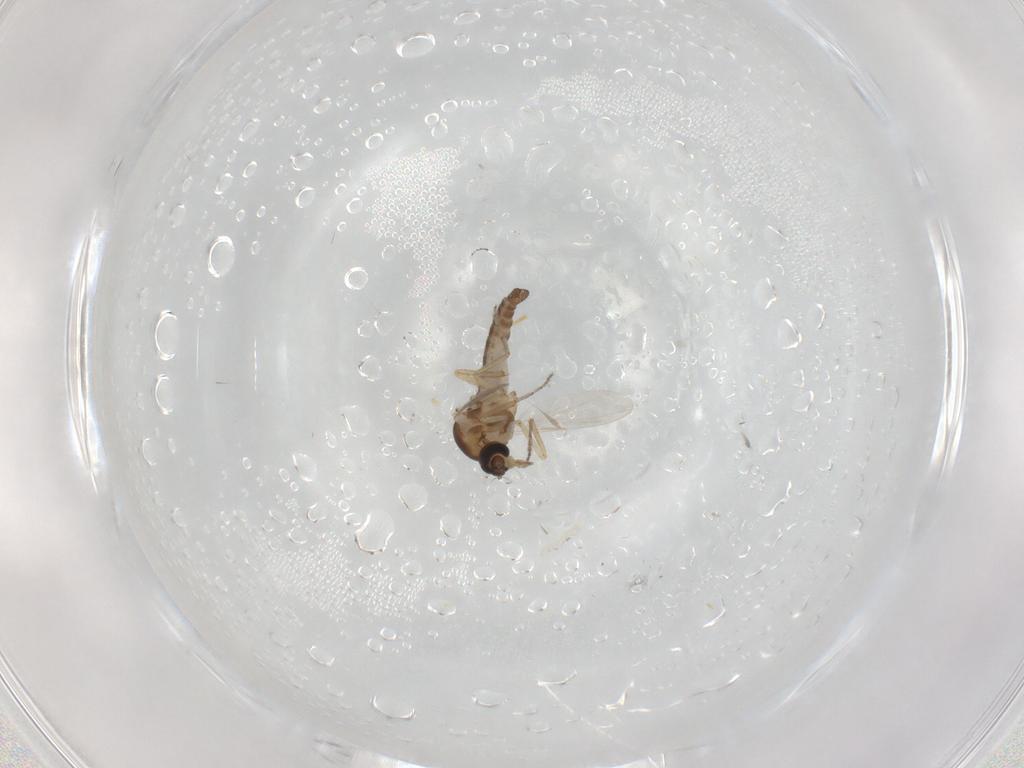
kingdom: Animalia
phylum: Arthropoda
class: Insecta
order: Diptera
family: Ceratopogonidae
